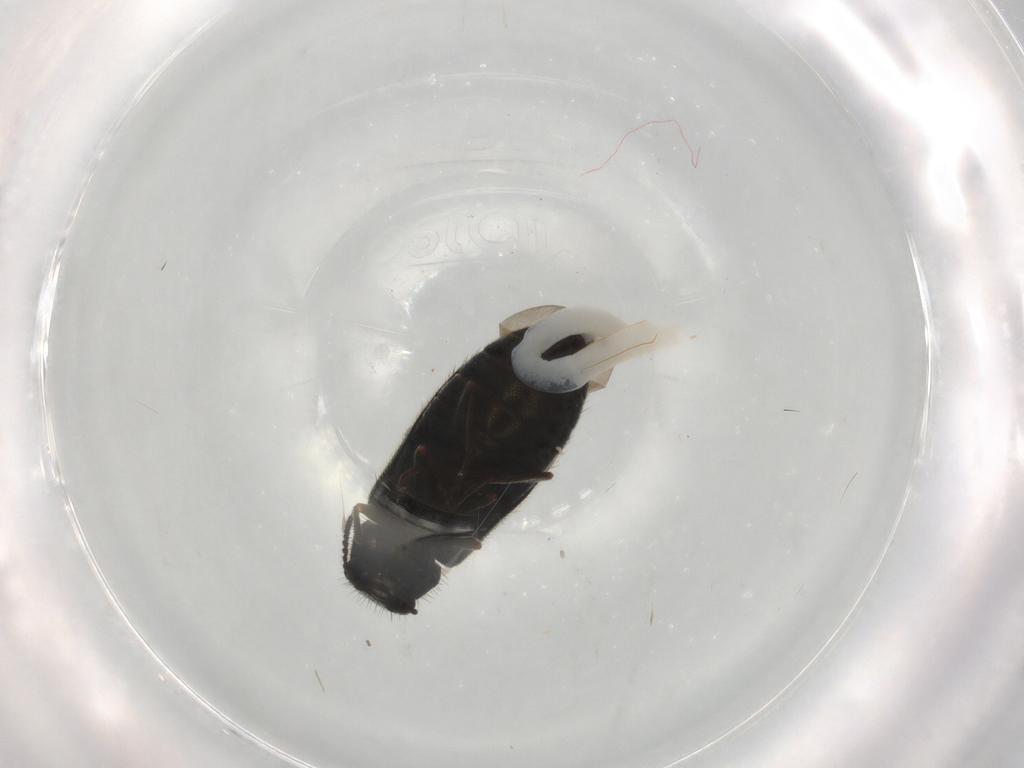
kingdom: Animalia
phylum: Arthropoda
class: Insecta
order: Coleoptera
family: Melyridae
